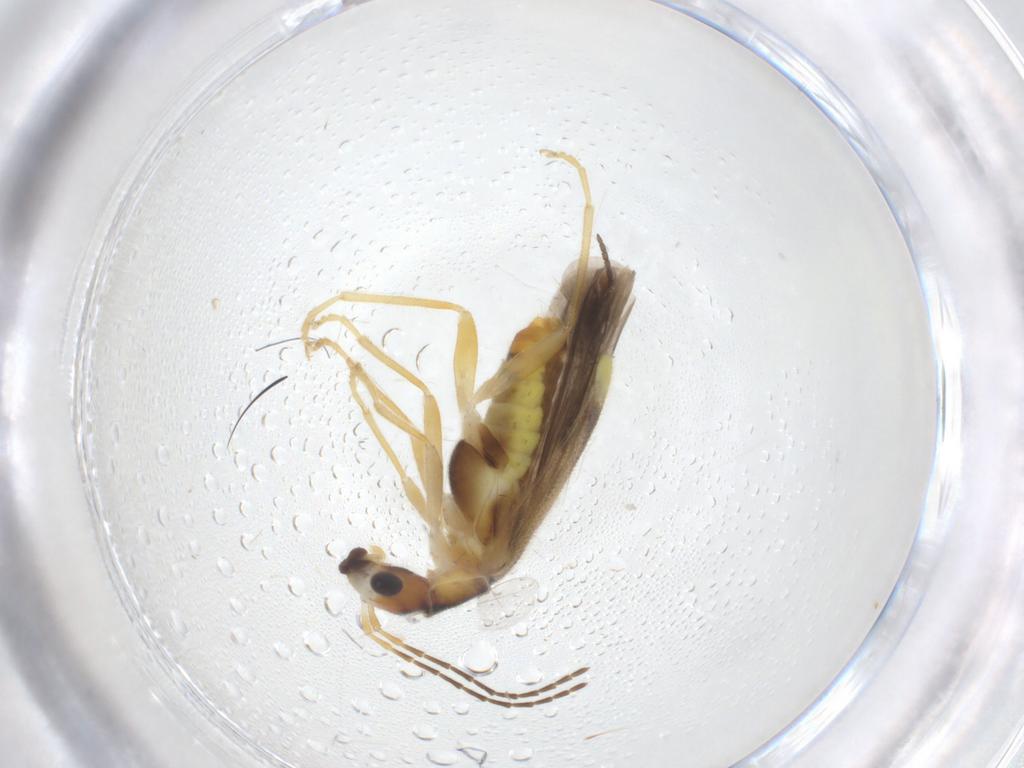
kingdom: Animalia
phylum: Arthropoda
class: Insecta
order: Coleoptera
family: Cantharidae
